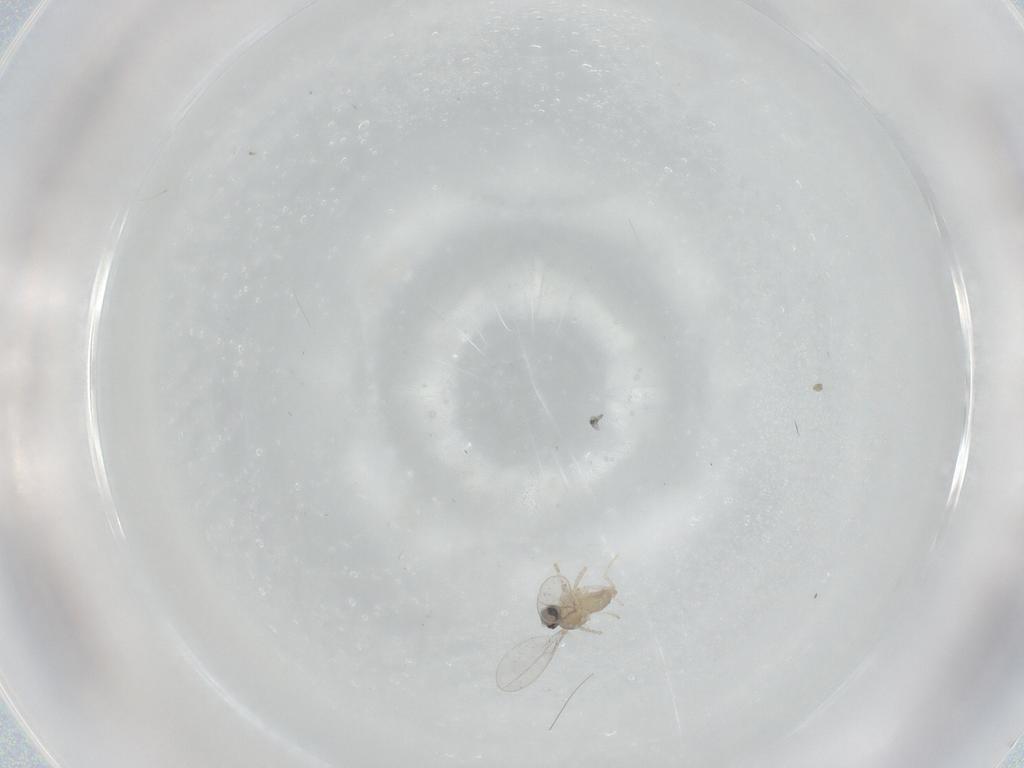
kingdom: Animalia
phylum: Arthropoda
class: Insecta
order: Diptera
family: Cecidomyiidae
